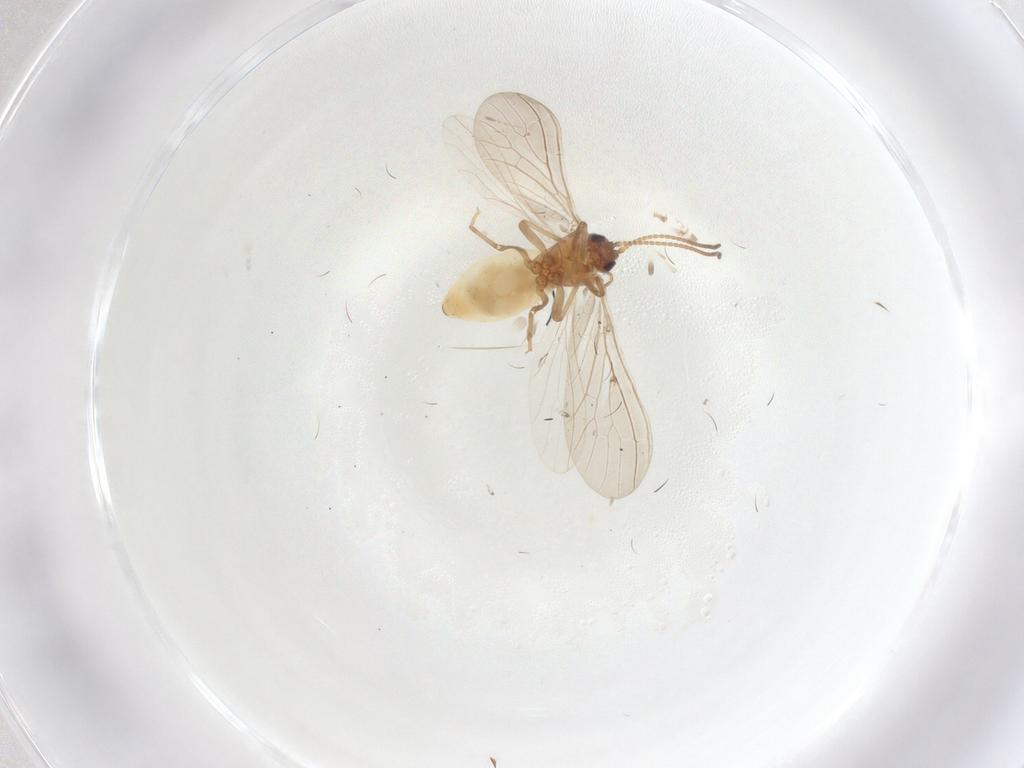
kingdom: Animalia
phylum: Arthropoda
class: Insecta
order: Neuroptera
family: Coniopterygidae
